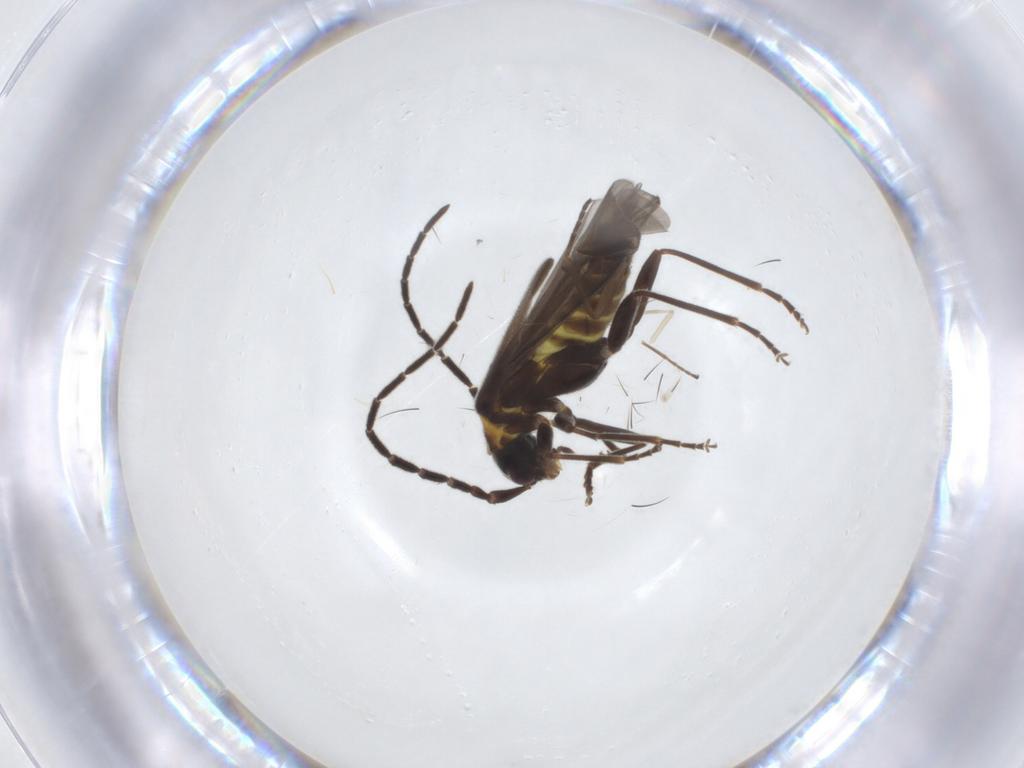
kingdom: Animalia
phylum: Arthropoda
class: Insecta
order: Coleoptera
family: Cantharidae
